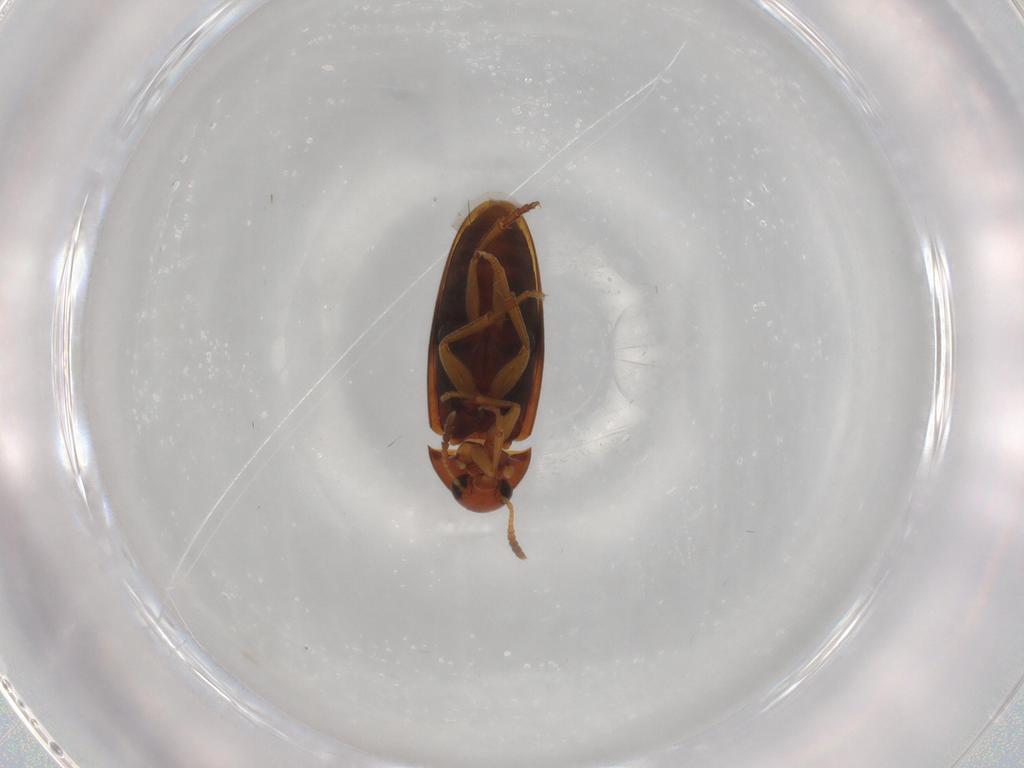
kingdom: Animalia
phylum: Arthropoda
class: Insecta
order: Coleoptera
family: Scraptiidae
